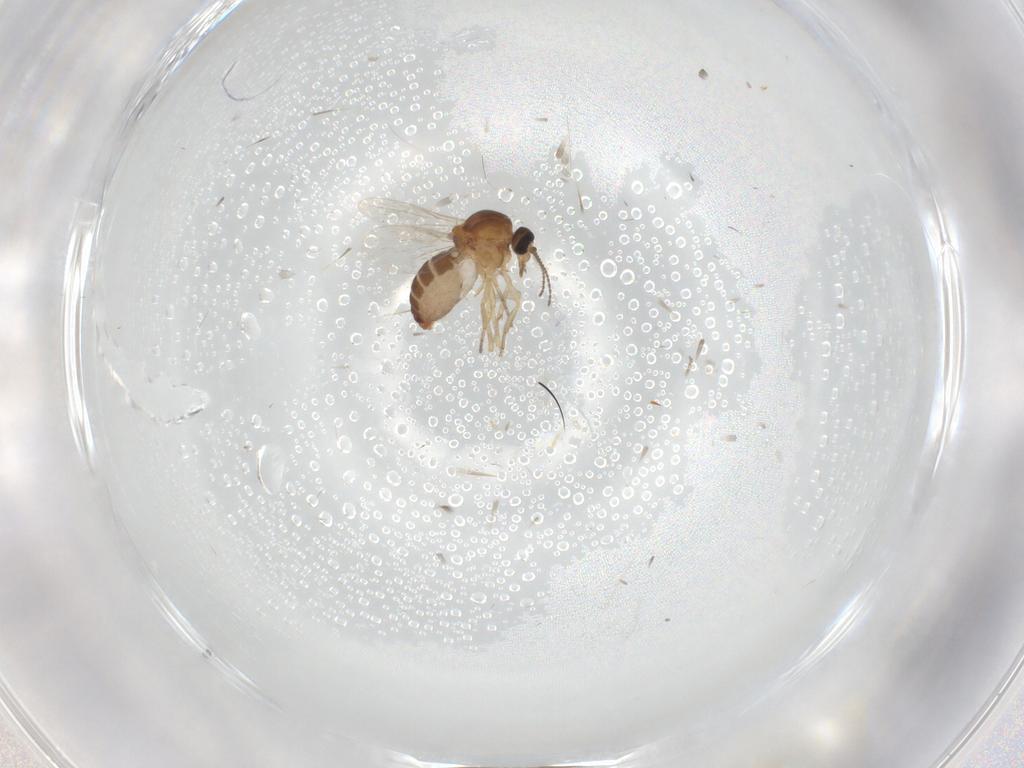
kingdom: Animalia
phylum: Arthropoda
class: Insecta
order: Diptera
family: Ceratopogonidae
